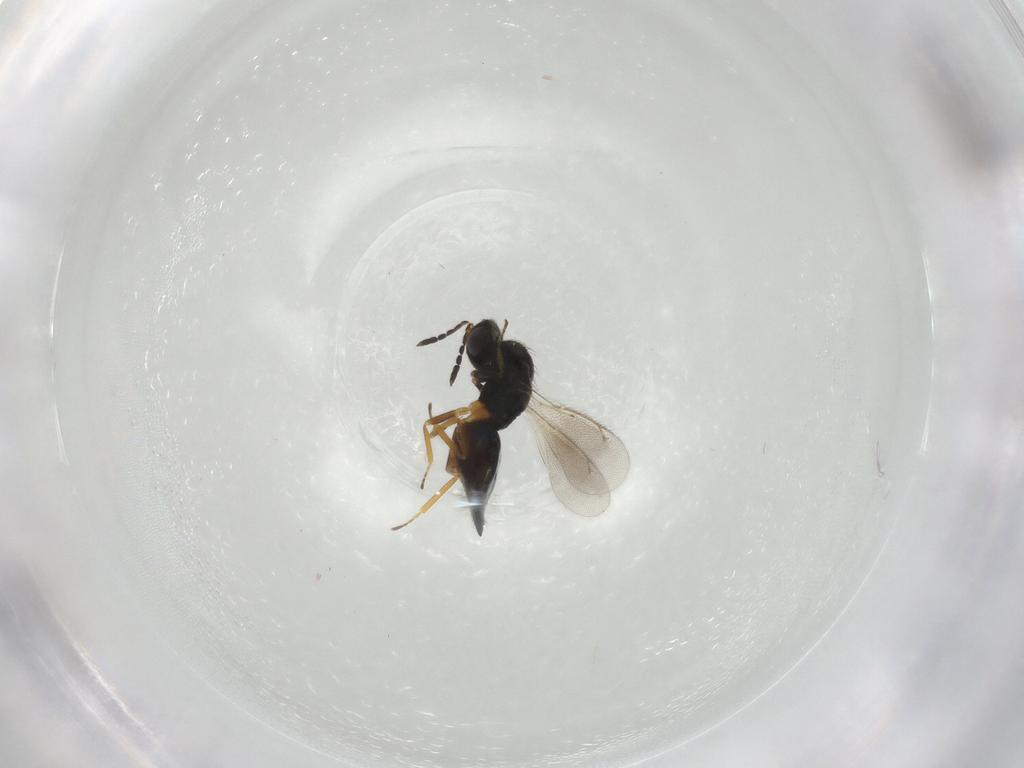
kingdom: Animalia
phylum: Arthropoda
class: Insecta
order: Hymenoptera
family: Eulophidae
